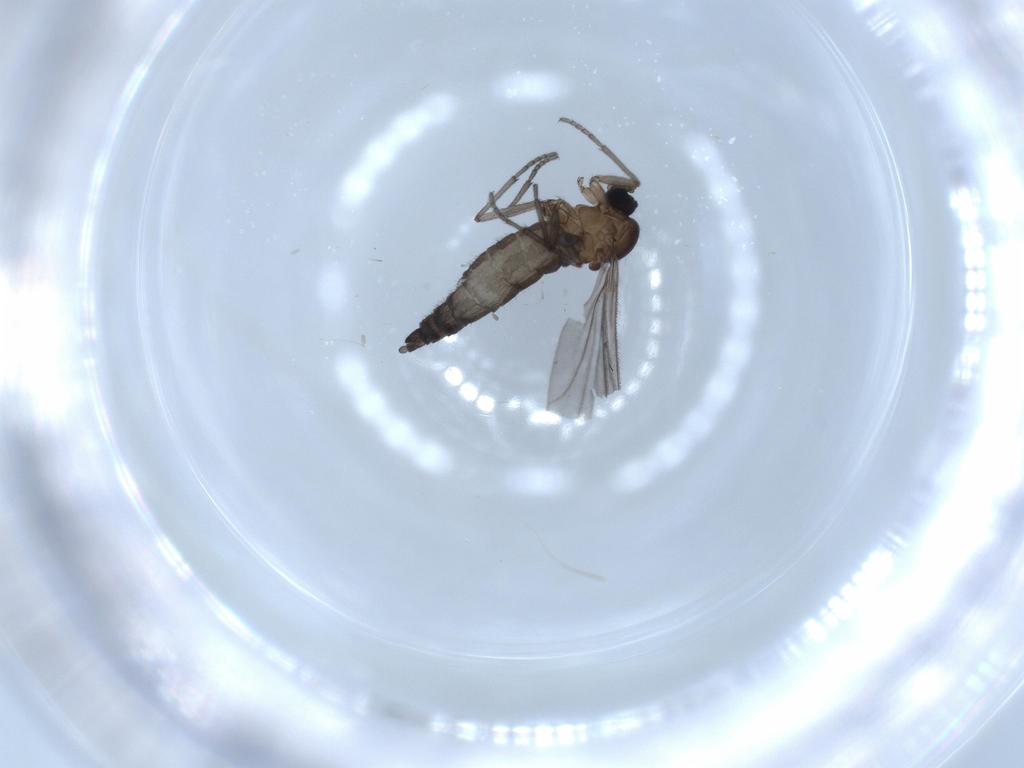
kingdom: Animalia
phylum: Arthropoda
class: Insecta
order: Diptera
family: Sciaridae
